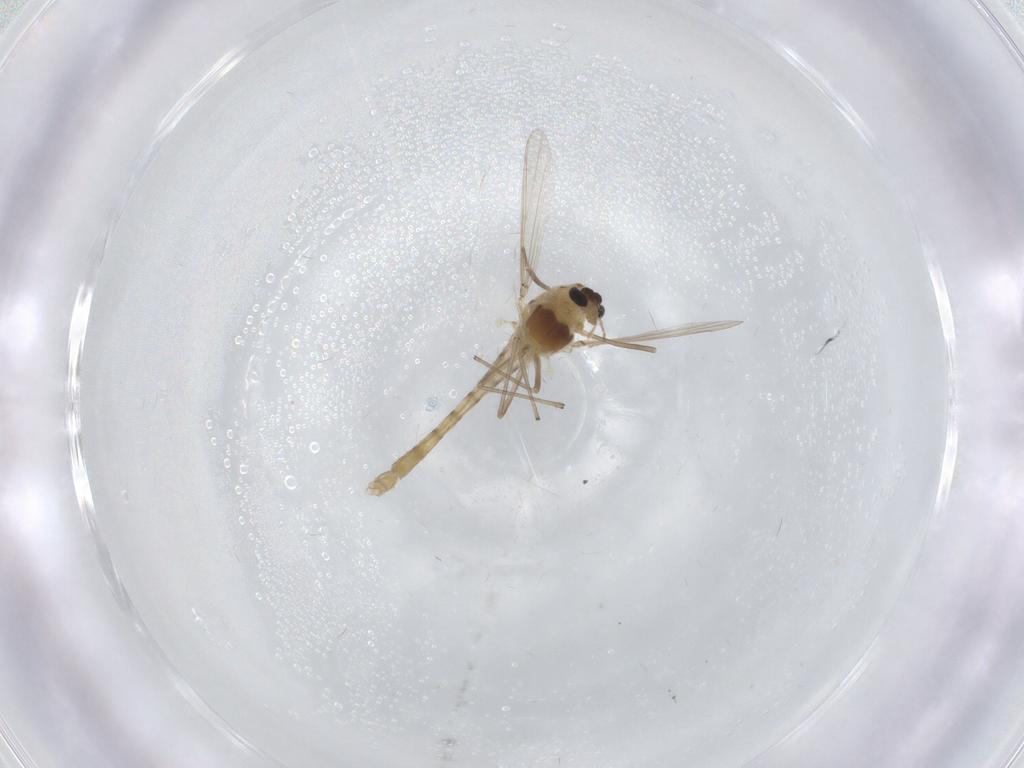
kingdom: Animalia
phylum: Arthropoda
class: Insecta
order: Diptera
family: Chironomidae
